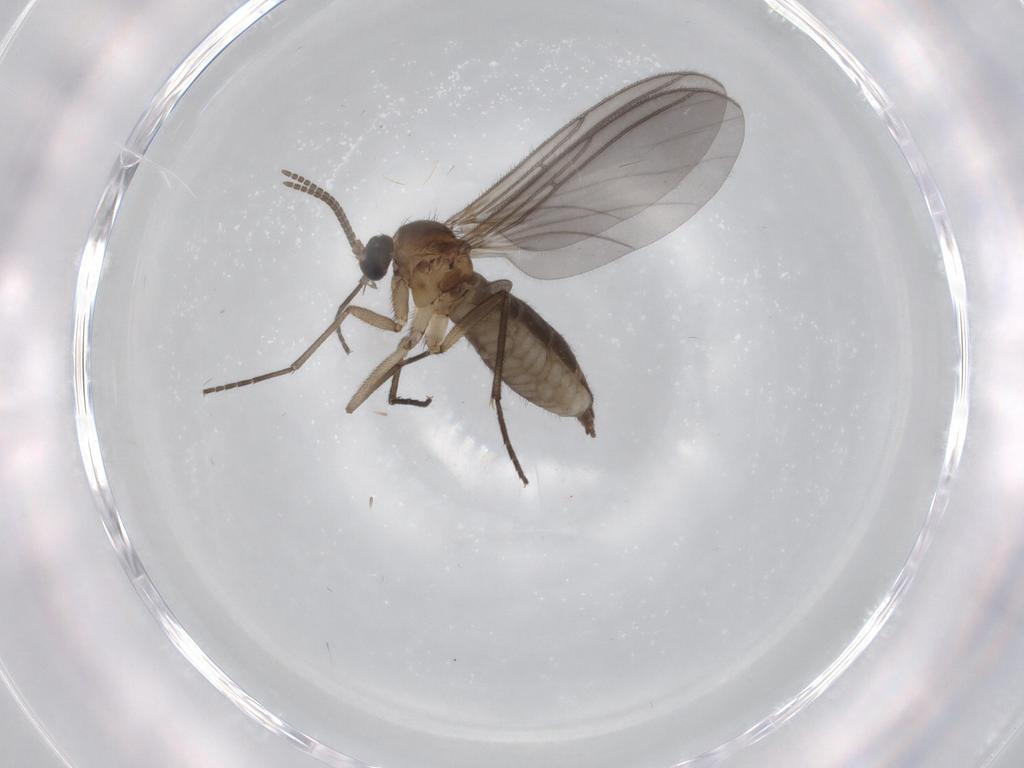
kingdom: Animalia
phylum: Arthropoda
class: Insecta
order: Diptera
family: Sciaridae
